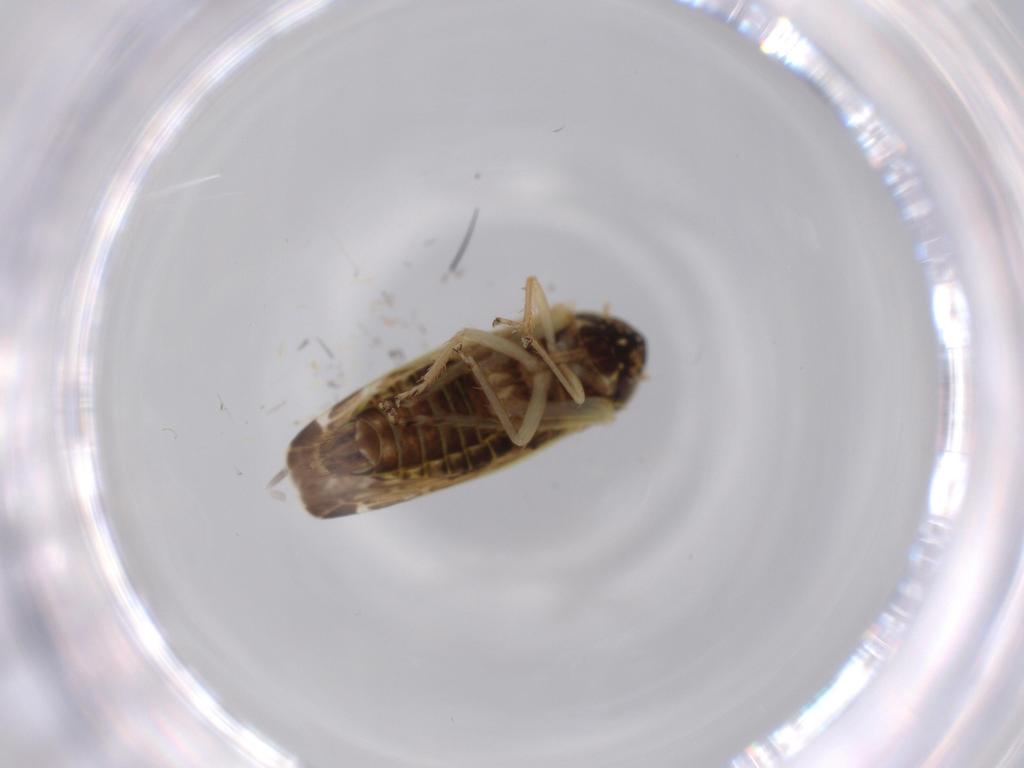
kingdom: Animalia
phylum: Arthropoda
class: Insecta
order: Hemiptera
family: Cicadellidae
